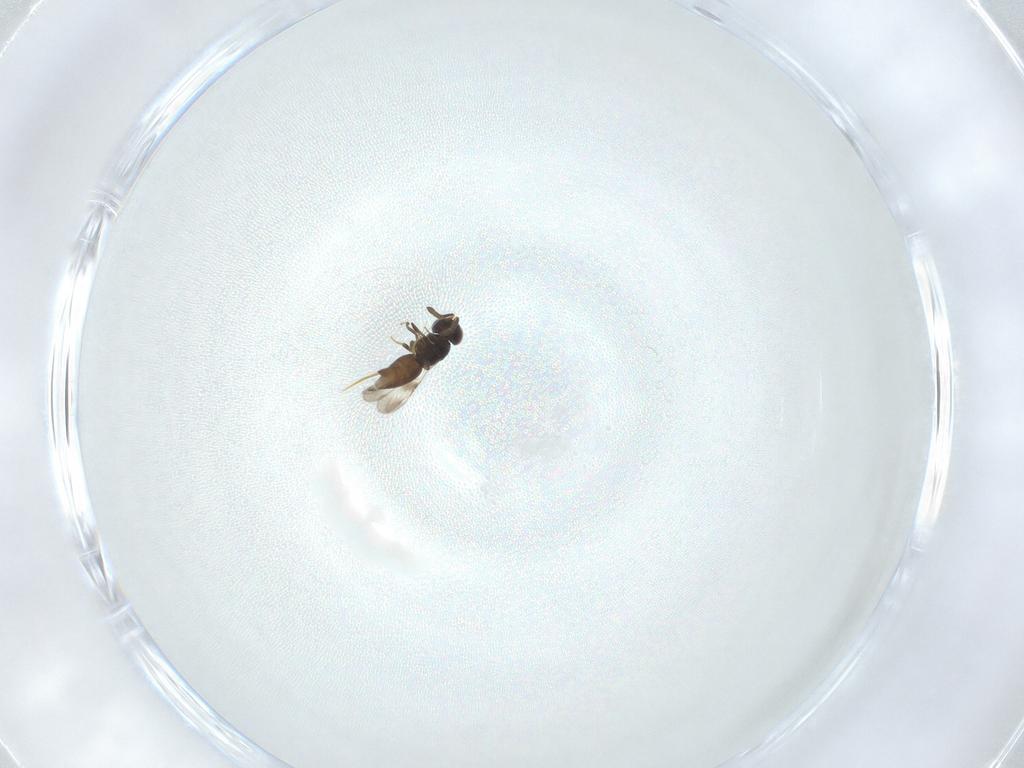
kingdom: Animalia
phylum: Arthropoda
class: Insecta
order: Hymenoptera
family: Ceraphronidae
